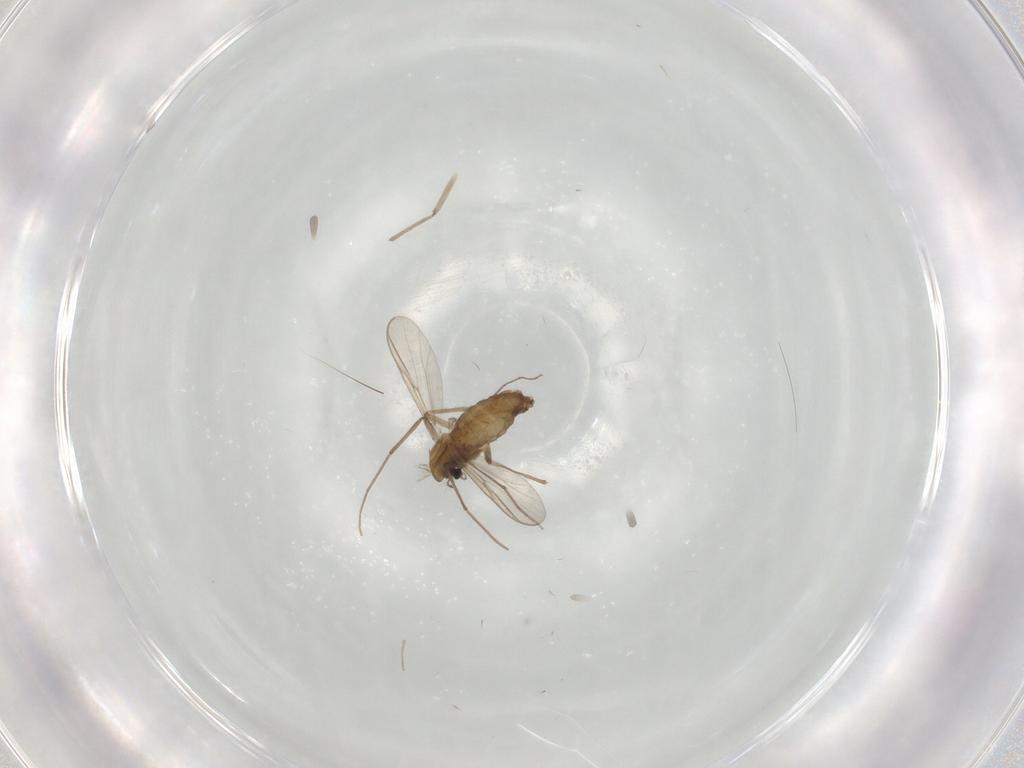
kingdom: Animalia
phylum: Arthropoda
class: Insecta
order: Diptera
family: Chironomidae
